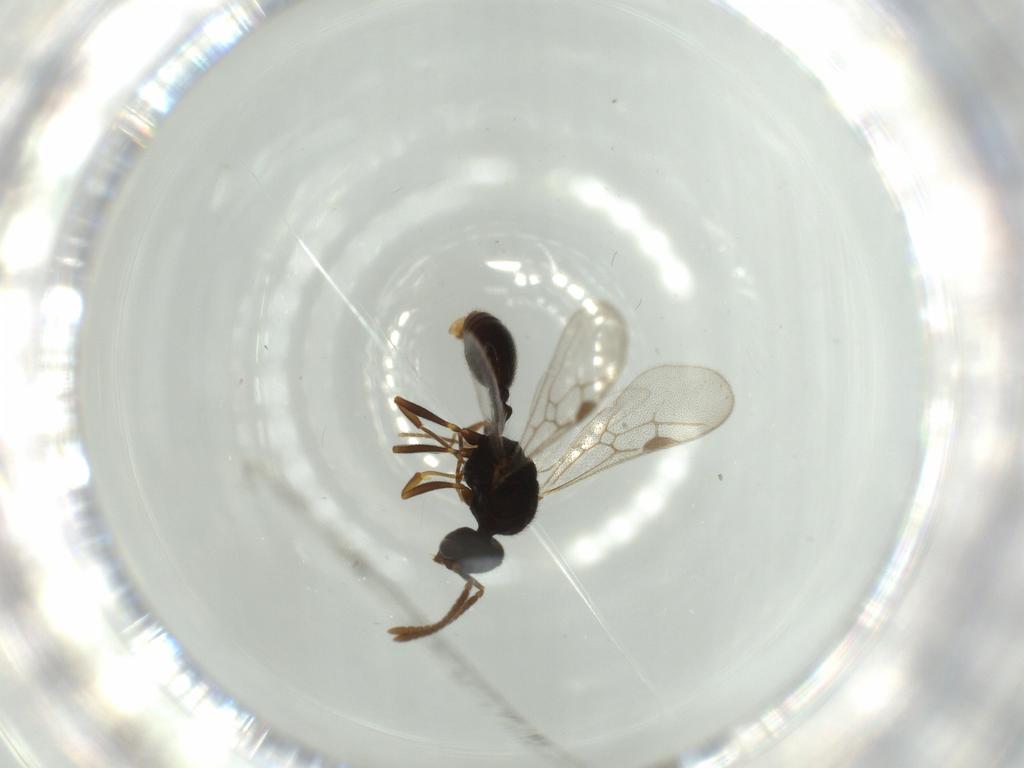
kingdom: Animalia
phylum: Arthropoda
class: Insecta
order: Hymenoptera
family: Formicidae
